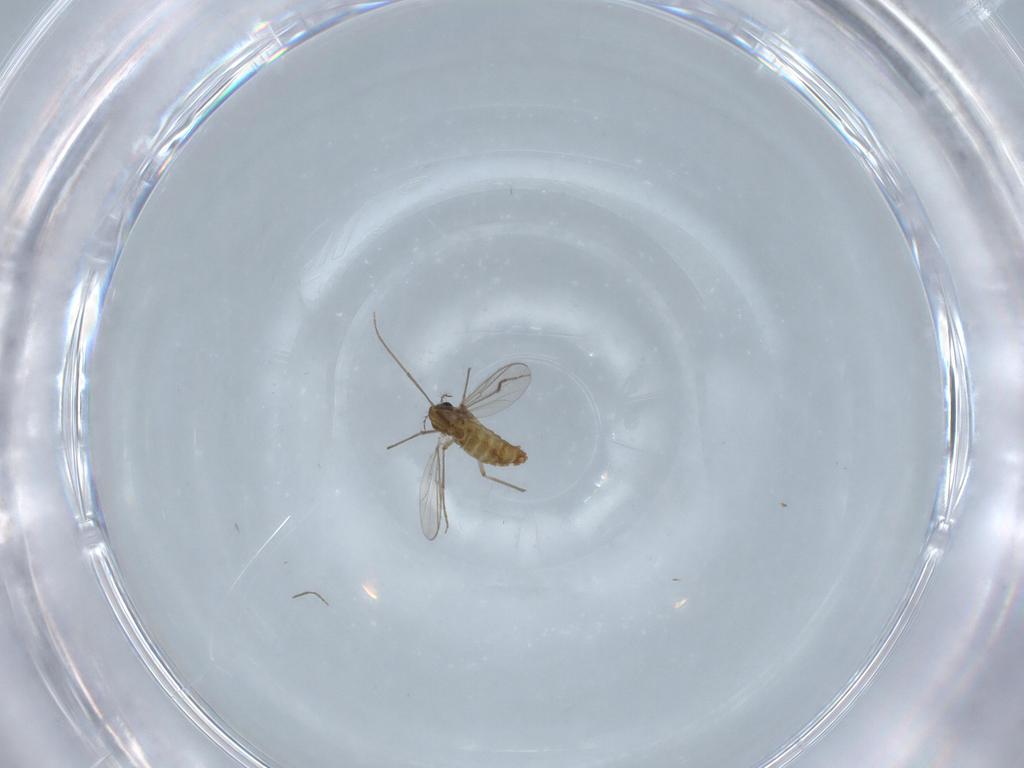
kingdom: Animalia
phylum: Arthropoda
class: Insecta
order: Diptera
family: Chironomidae
